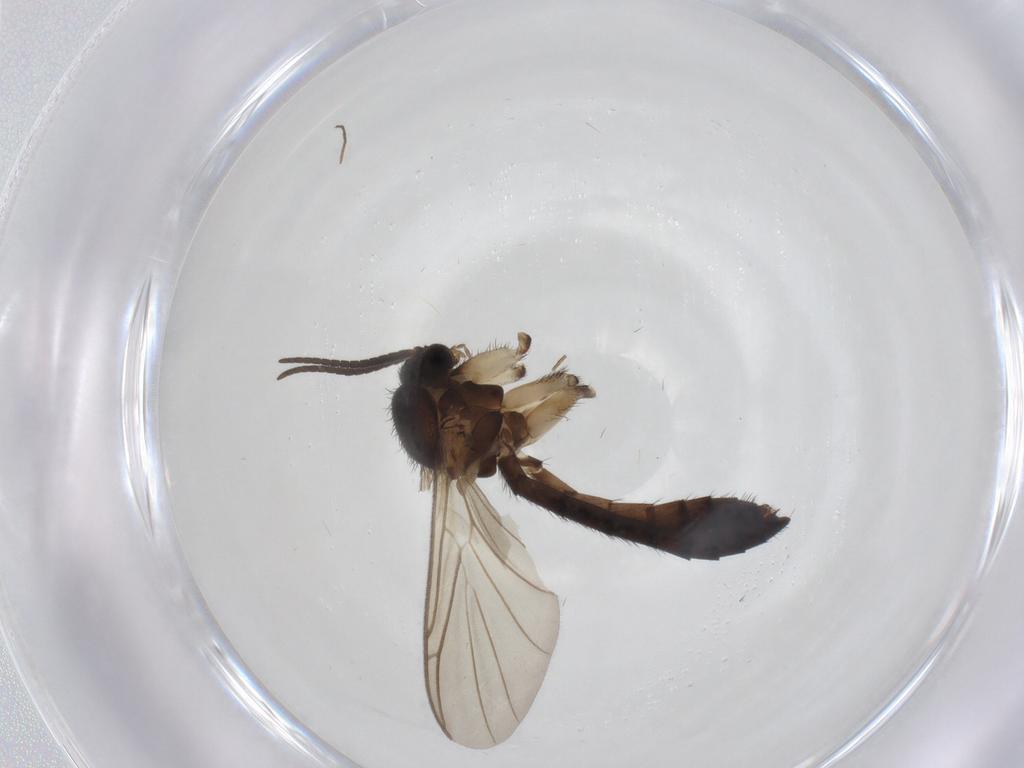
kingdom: Animalia
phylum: Arthropoda
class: Insecta
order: Diptera
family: Keroplatidae
